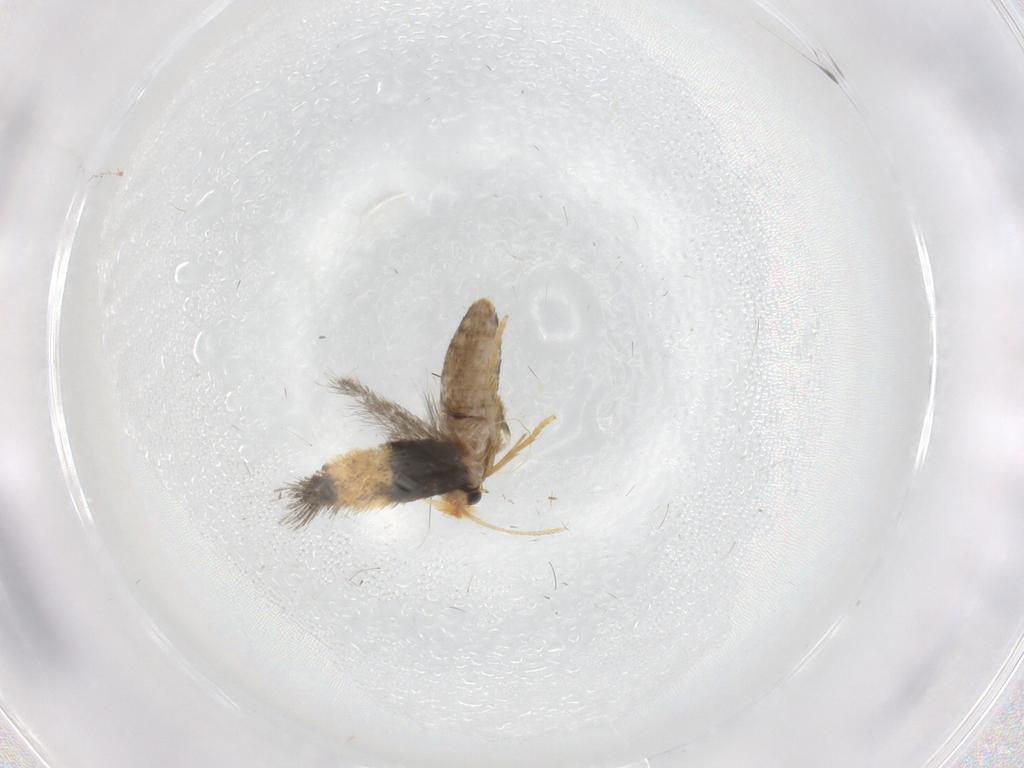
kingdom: Animalia
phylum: Arthropoda
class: Insecta
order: Lepidoptera
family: Nepticulidae
